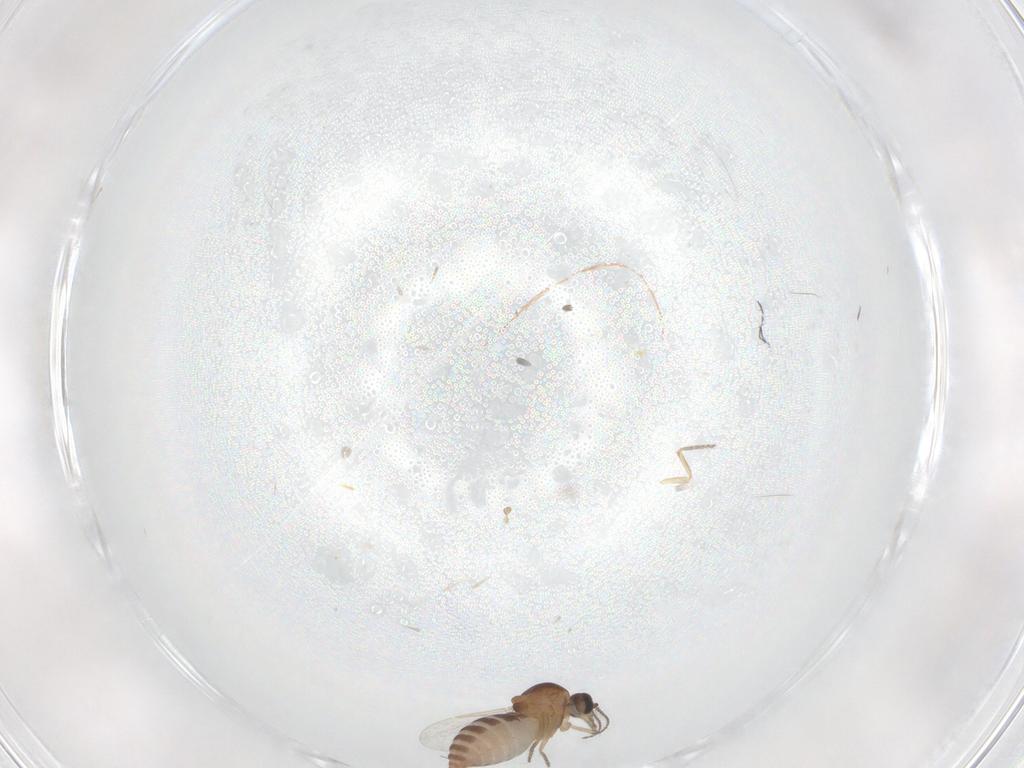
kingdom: Animalia
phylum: Arthropoda
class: Insecta
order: Diptera
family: Ceratopogonidae
